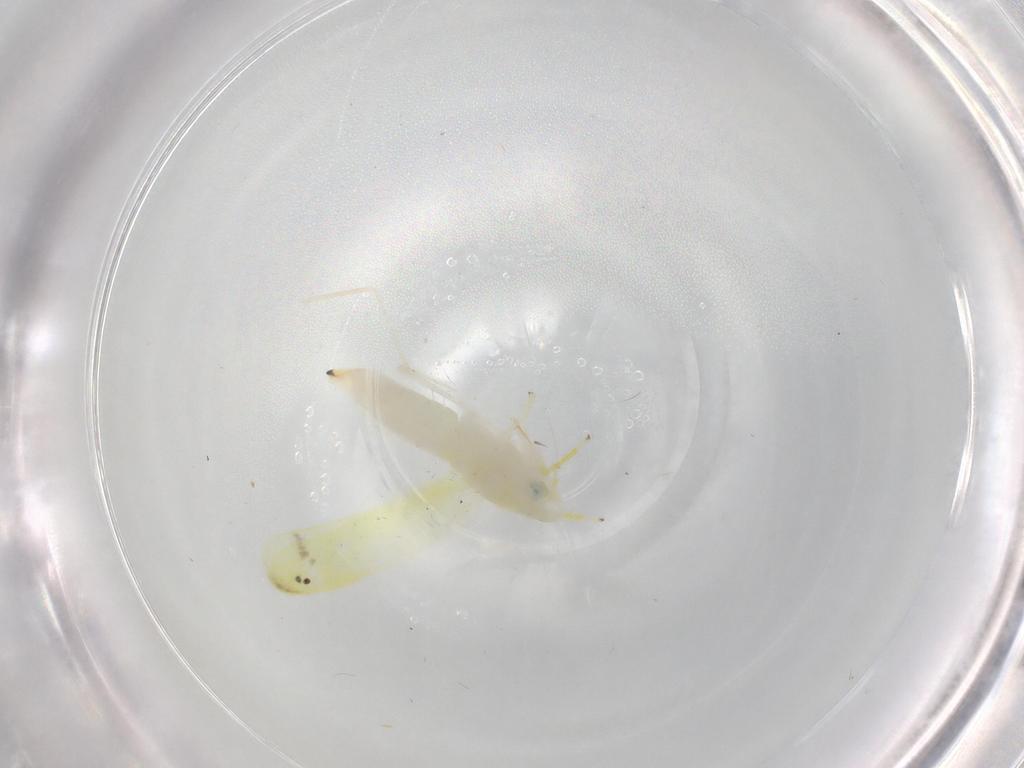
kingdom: Animalia
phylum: Arthropoda
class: Insecta
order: Hemiptera
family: Cicadellidae
